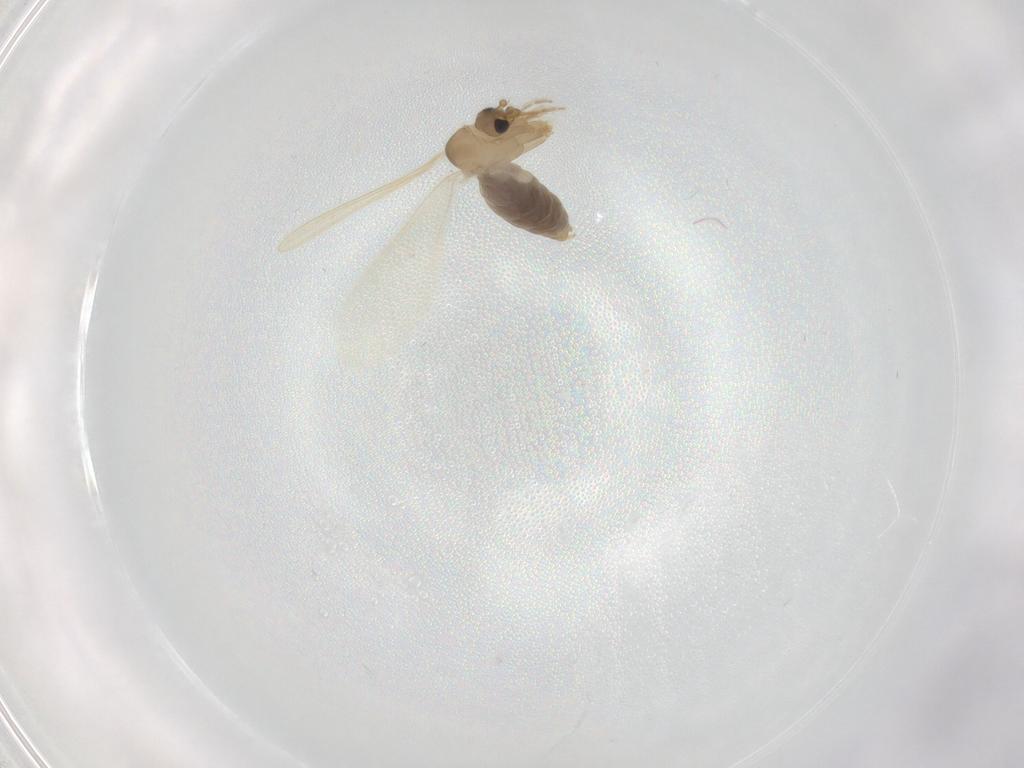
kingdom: Animalia
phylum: Arthropoda
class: Insecta
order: Diptera
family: Psychodidae
